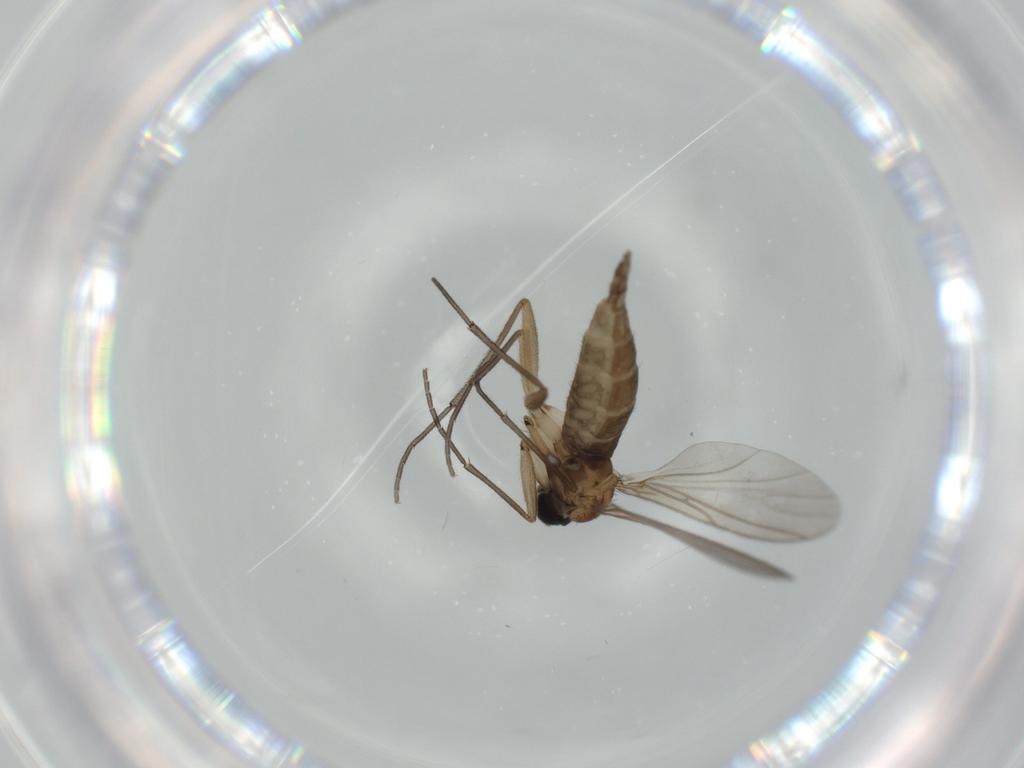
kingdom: Animalia
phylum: Arthropoda
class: Insecta
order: Diptera
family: Sciaridae
